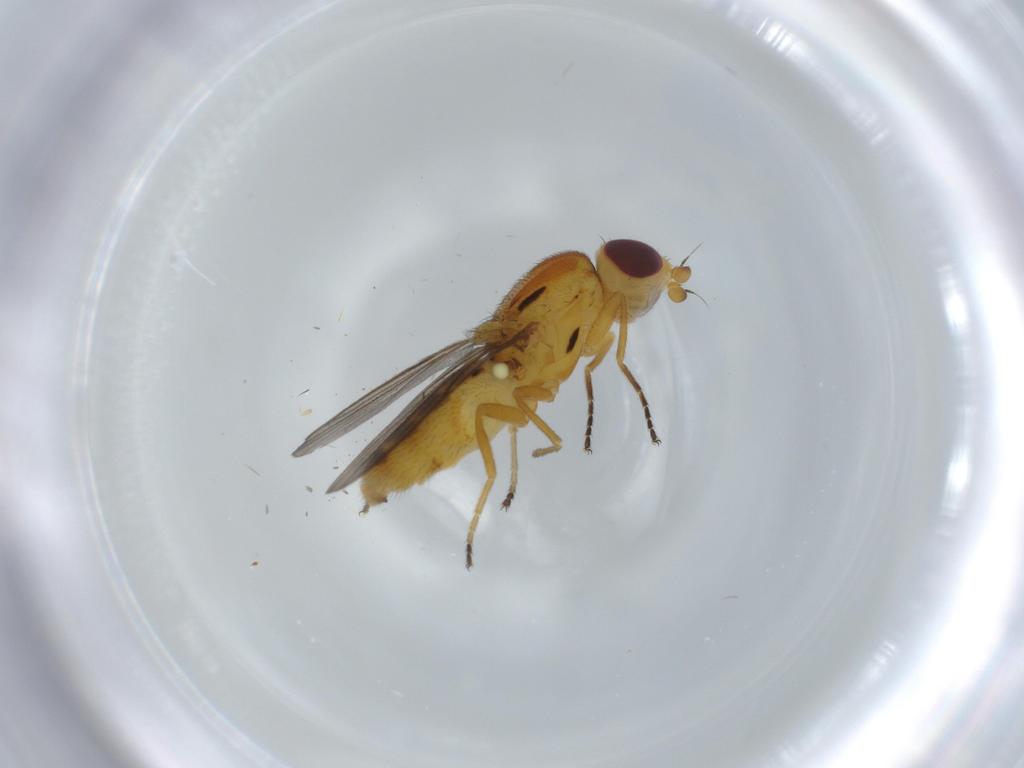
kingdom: Animalia
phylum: Arthropoda
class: Insecta
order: Diptera
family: Chloropidae
